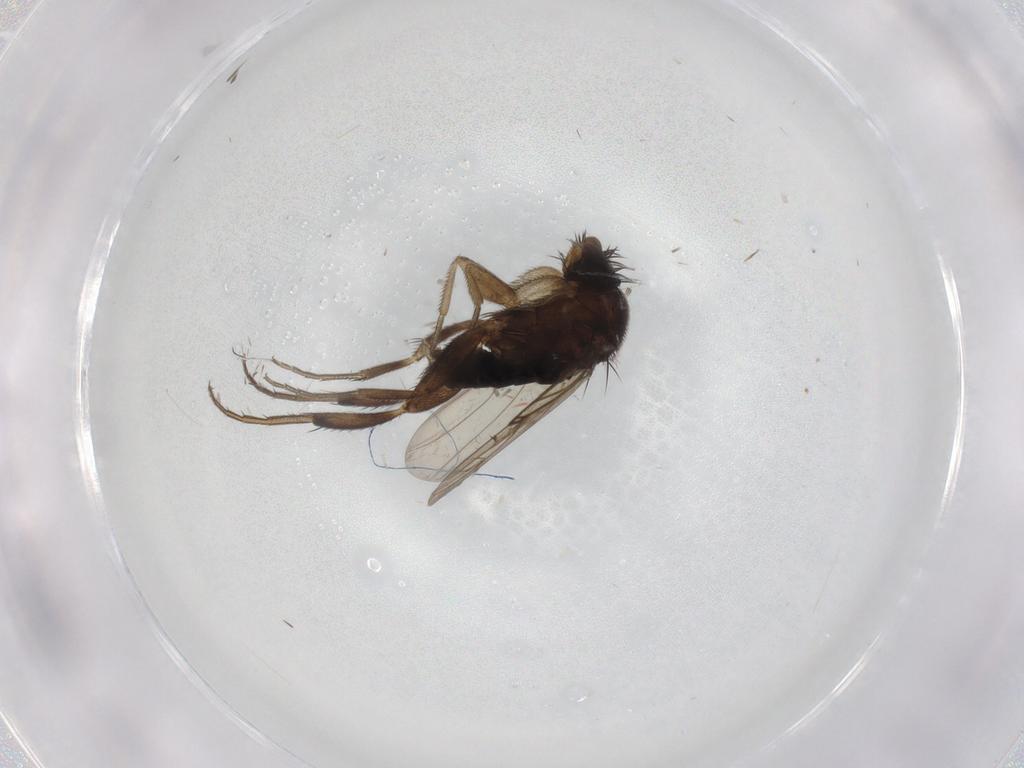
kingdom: Animalia
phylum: Arthropoda
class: Insecta
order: Diptera
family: Phoridae
